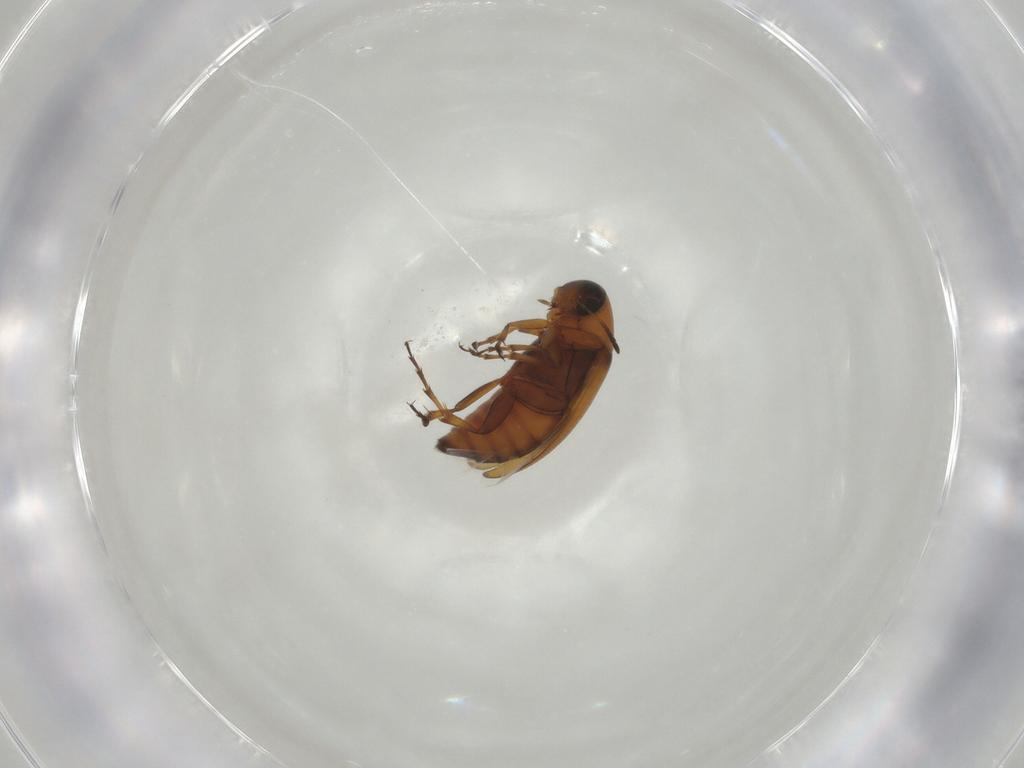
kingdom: Animalia
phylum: Arthropoda
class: Insecta
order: Coleoptera
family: Scraptiidae
